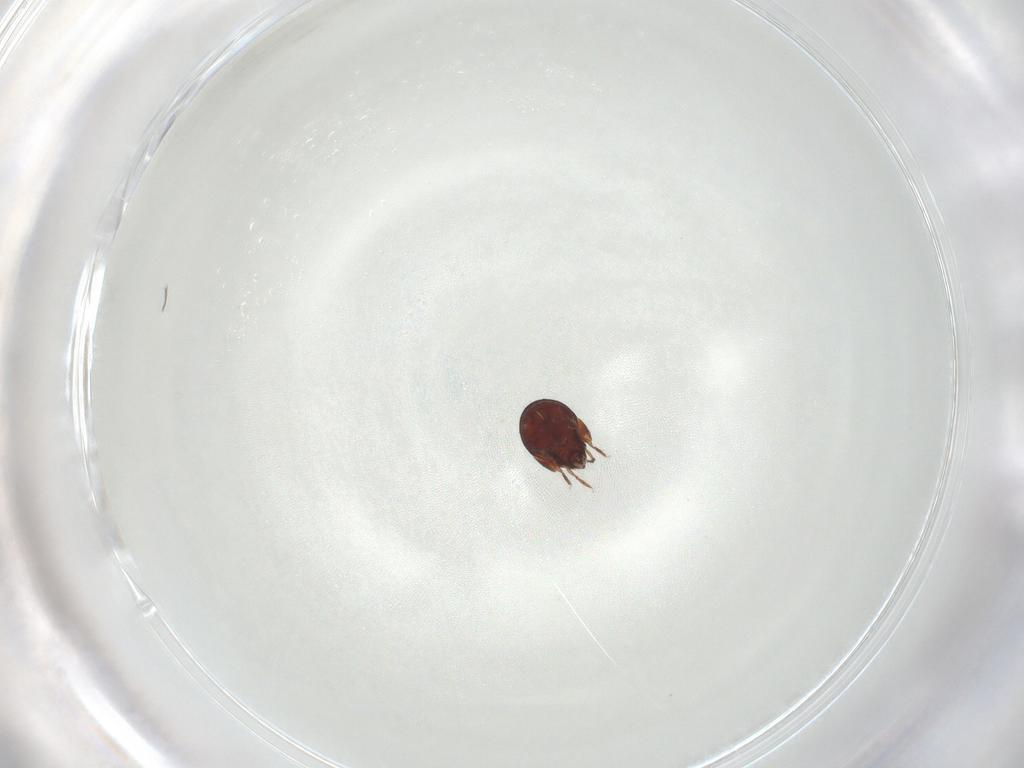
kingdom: Animalia
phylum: Arthropoda
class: Arachnida
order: Sarcoptiformes
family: Humerobatidae
